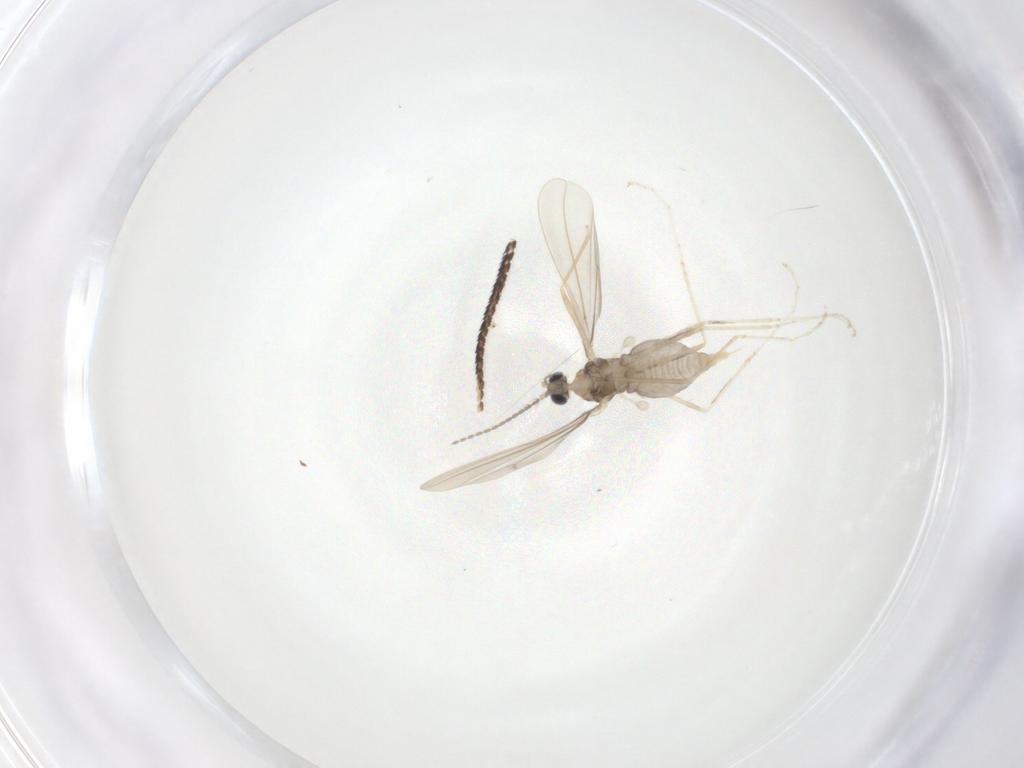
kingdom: Animalia
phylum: Arthropoda
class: Insecta
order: Diptera
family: Cecidomyiidae
